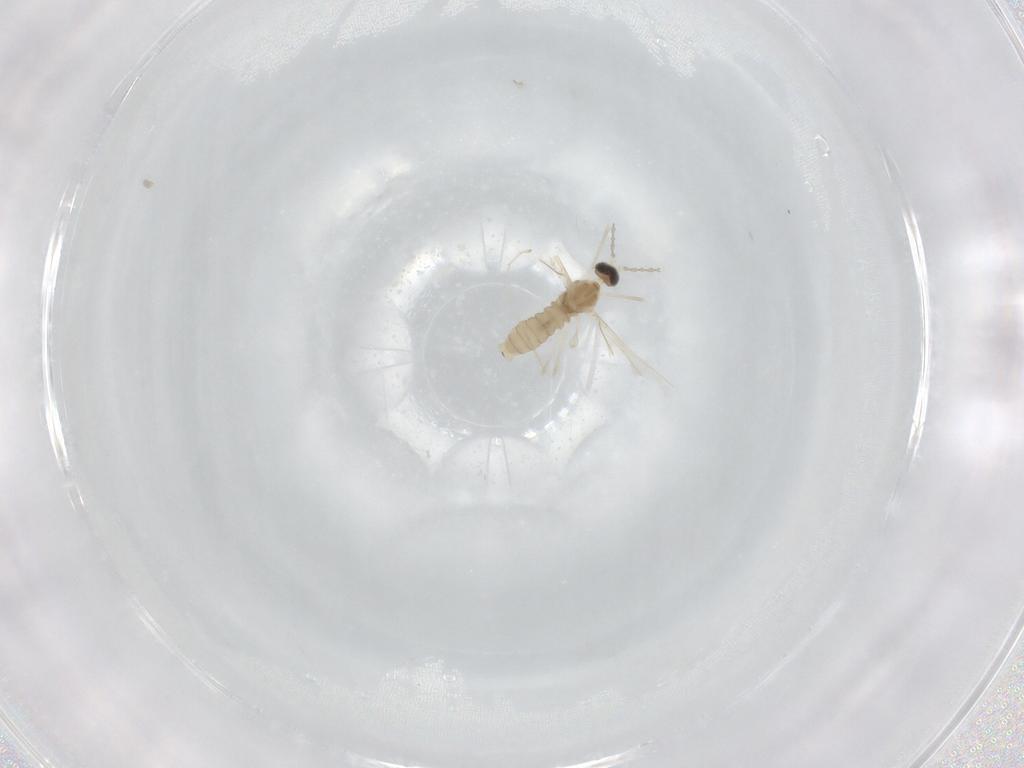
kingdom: Animalia
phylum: Arthropoda
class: Insecta
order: Diptera
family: Cecidomyiidae
